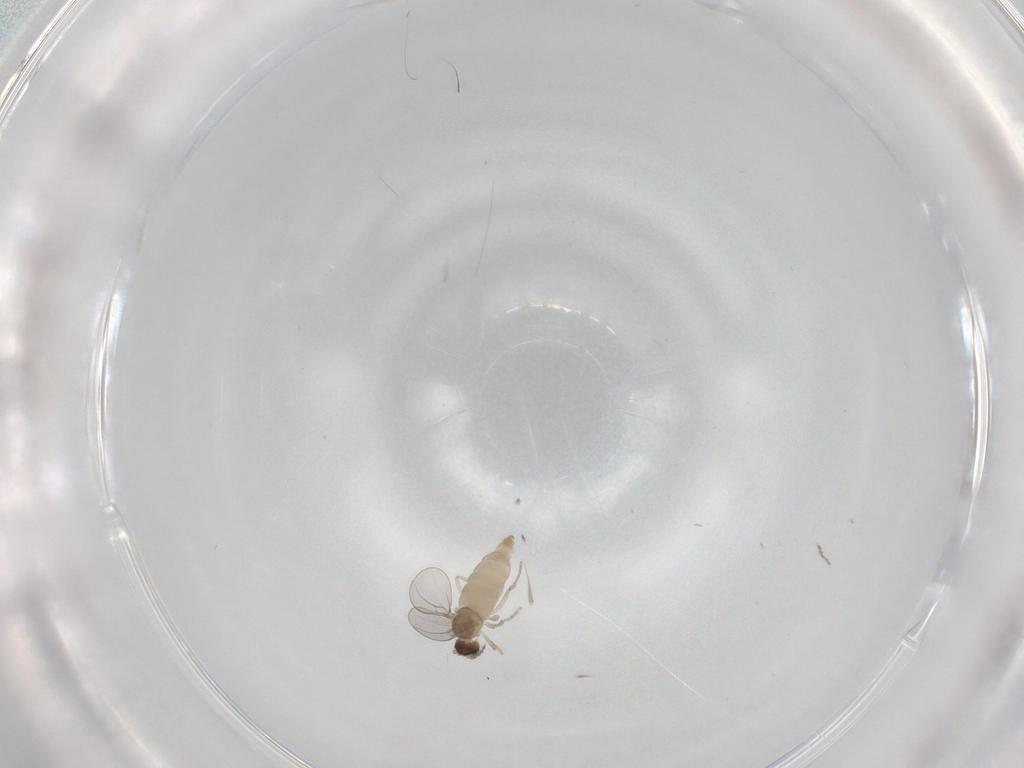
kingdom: Animalia
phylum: Arthropoda
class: Insecta
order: Diptera
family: Cecidomyiidae
